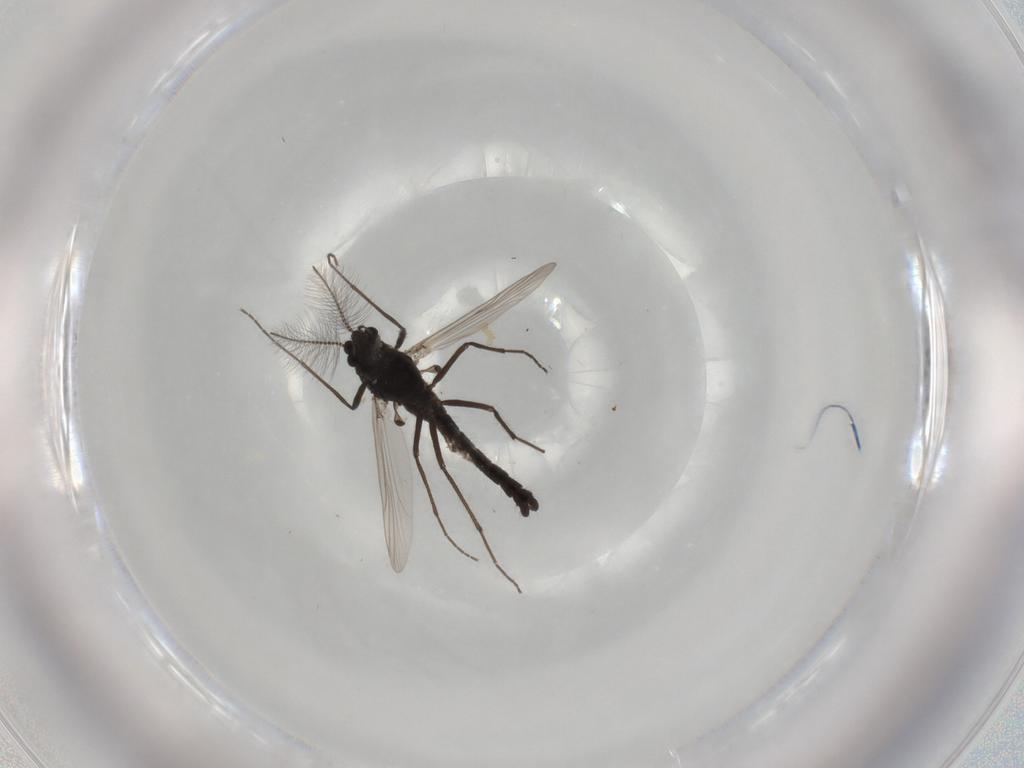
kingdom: Animalia
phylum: Arthropoda
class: Insecta
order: Diptera
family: Chironomidae
